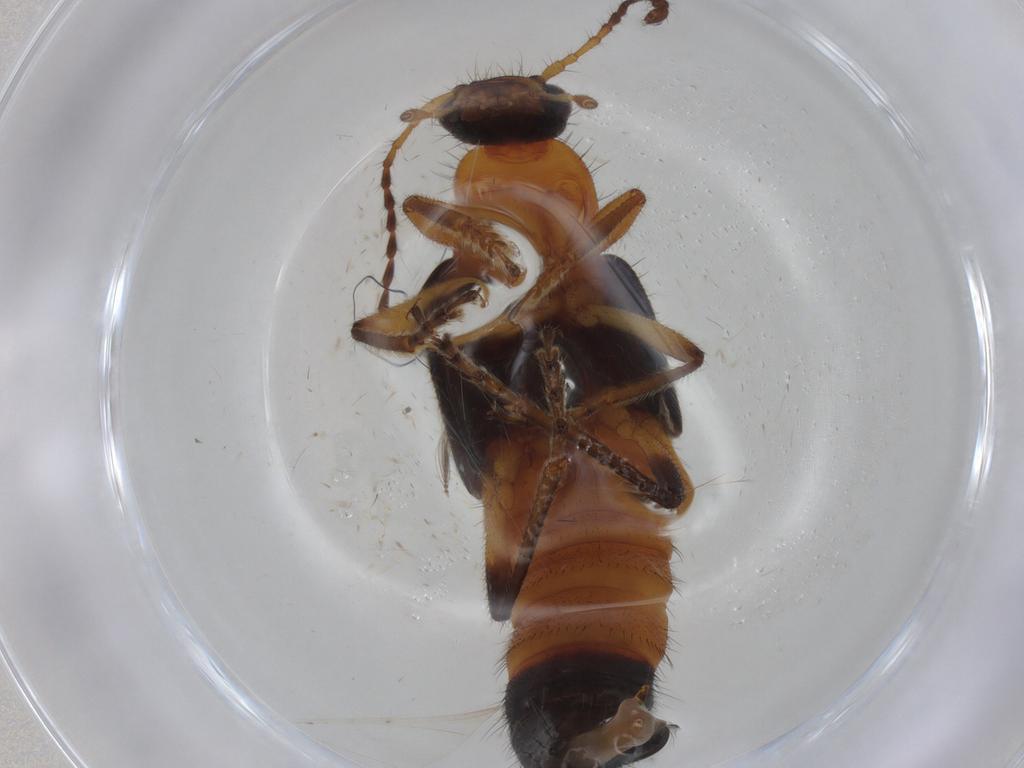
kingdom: Animalia
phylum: Arthropoda
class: Insecta
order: Coleoptera
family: Staphylinidae
